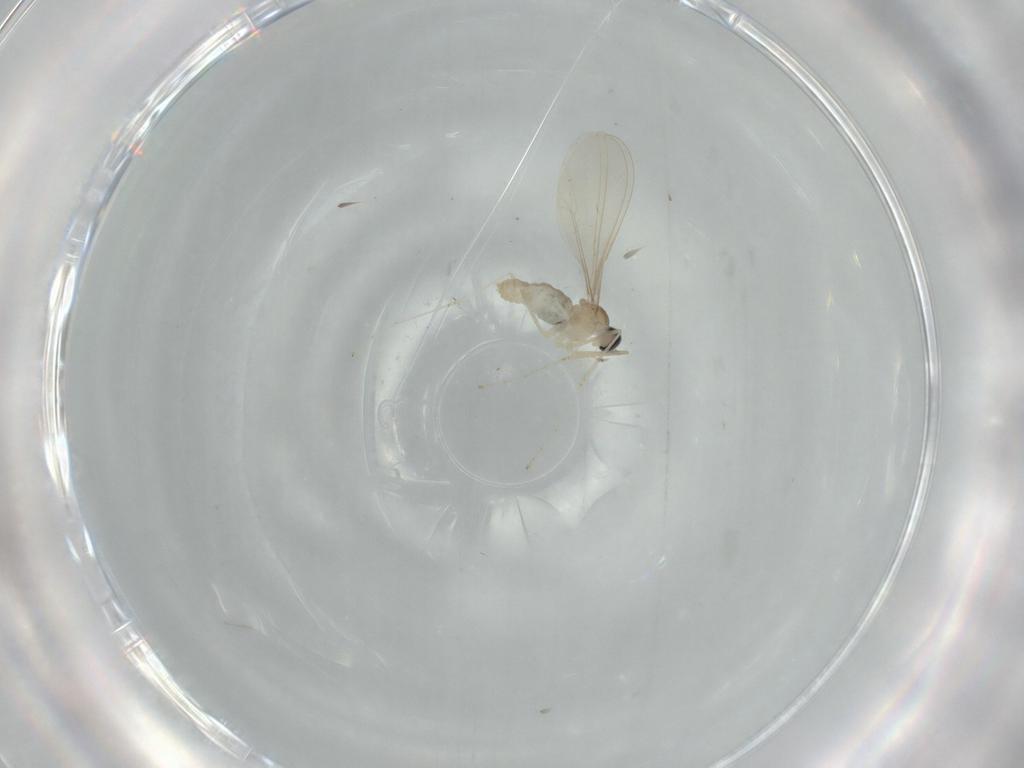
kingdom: Animalia
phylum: Arthropoda
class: Insecta
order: Diptera
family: Cecidomyiidae
